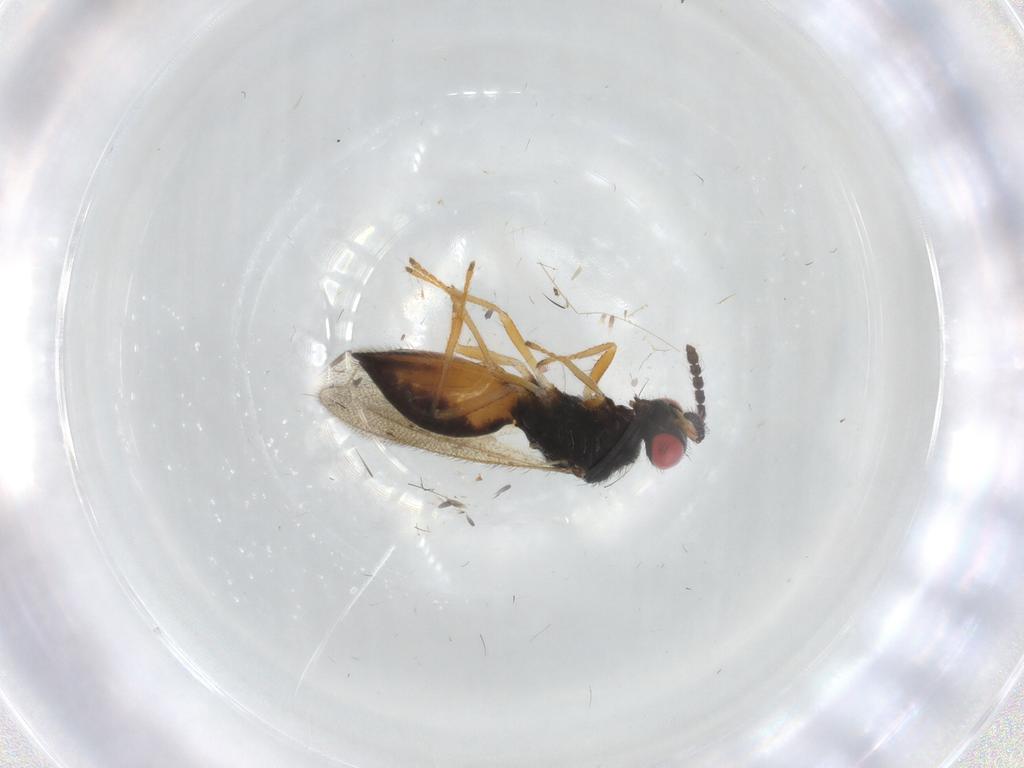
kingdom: Animalia
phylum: Arthropoda
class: Insecta
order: Hymenoptera
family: Eulophidae
